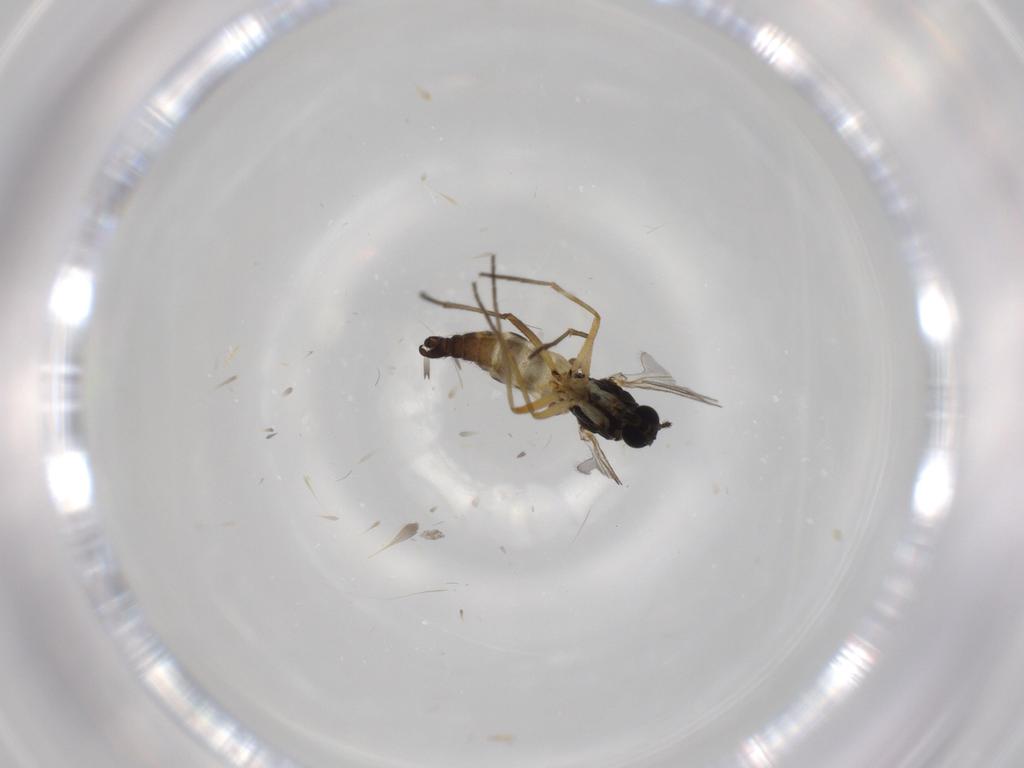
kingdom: Animalia
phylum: Arthropoda
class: Insecta
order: Diptera
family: Sciaridae
